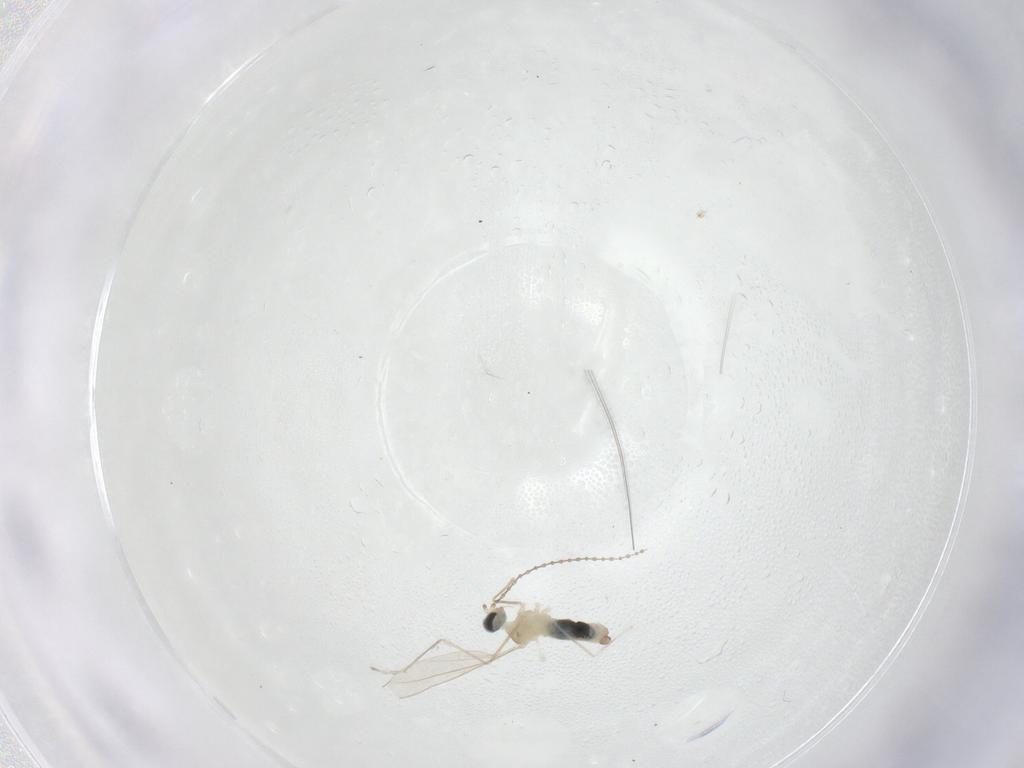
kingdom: Animalia
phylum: Arthropoda
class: Insecta
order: Diptera
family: Cecidomyiidae
